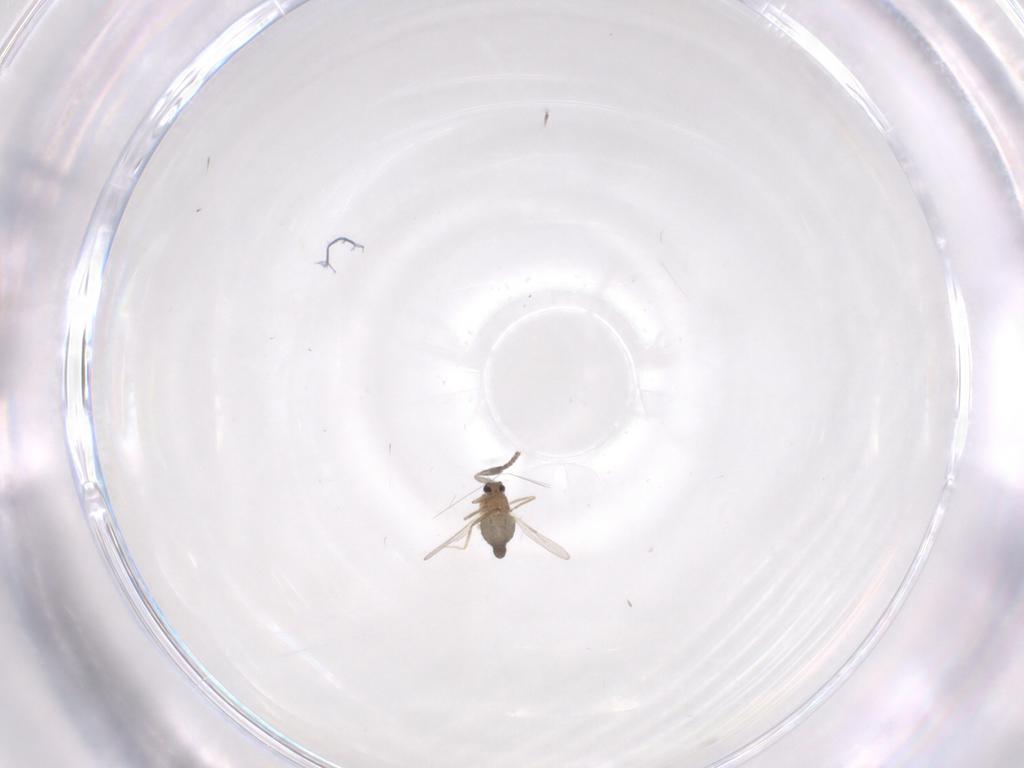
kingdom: Animalia
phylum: Arthropoda
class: Insecta
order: Diptera
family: Psychodidae
